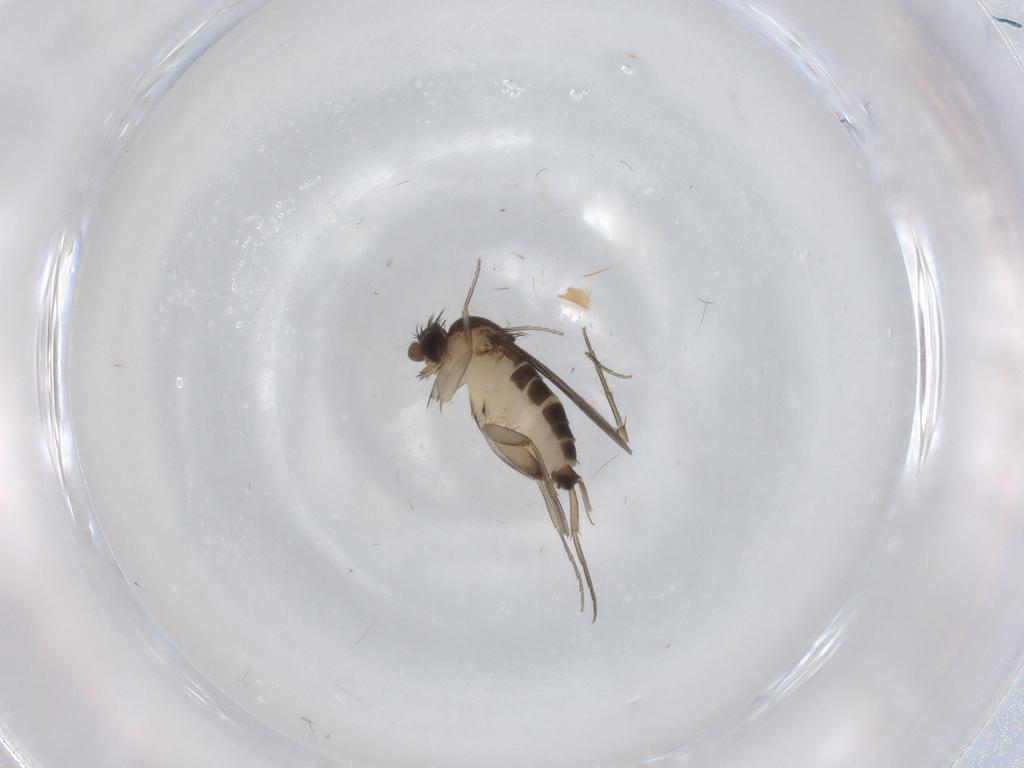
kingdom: Animalia
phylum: Arthropoda
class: Insecta
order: Diptera
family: Phoridae
